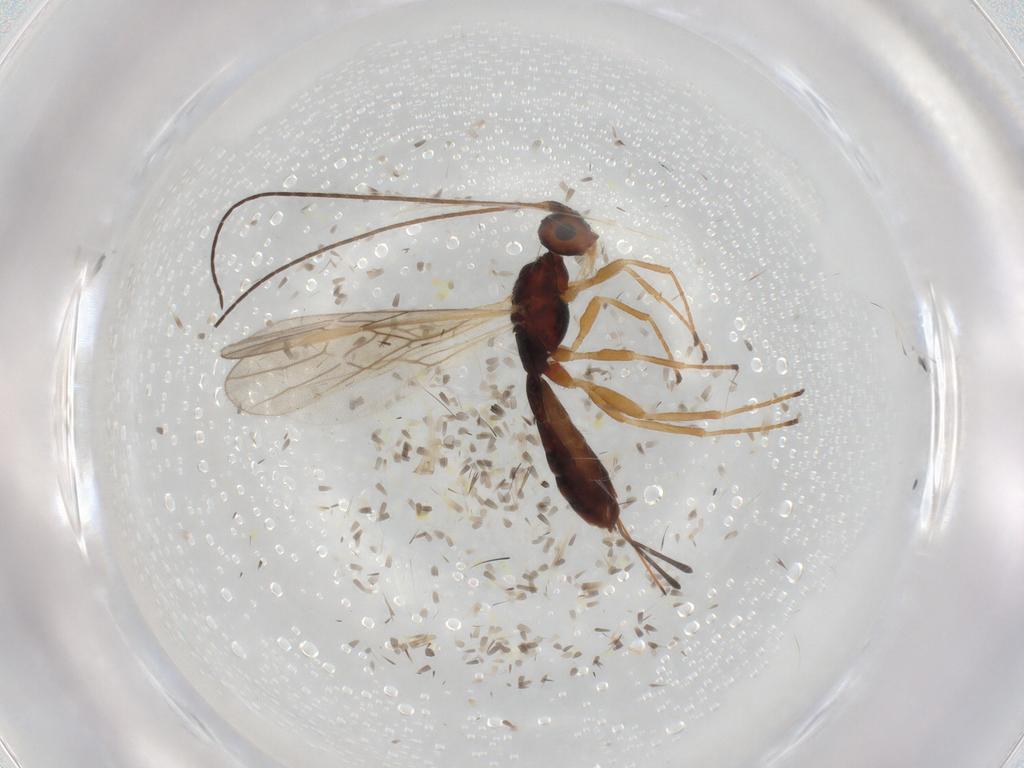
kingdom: Animalia
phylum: Arthropoda
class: Insecta
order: Hymenoptera
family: Braconidae
